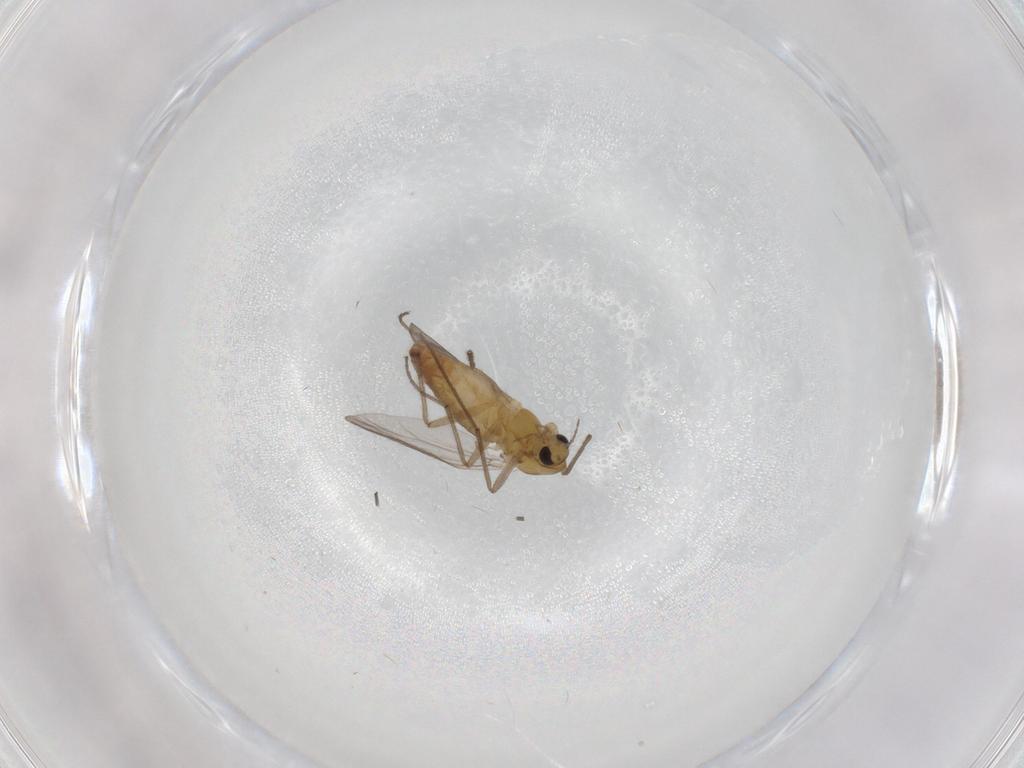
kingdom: Animalia
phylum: Arthropoda
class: Insecta
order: Diptera
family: Chironomidae
